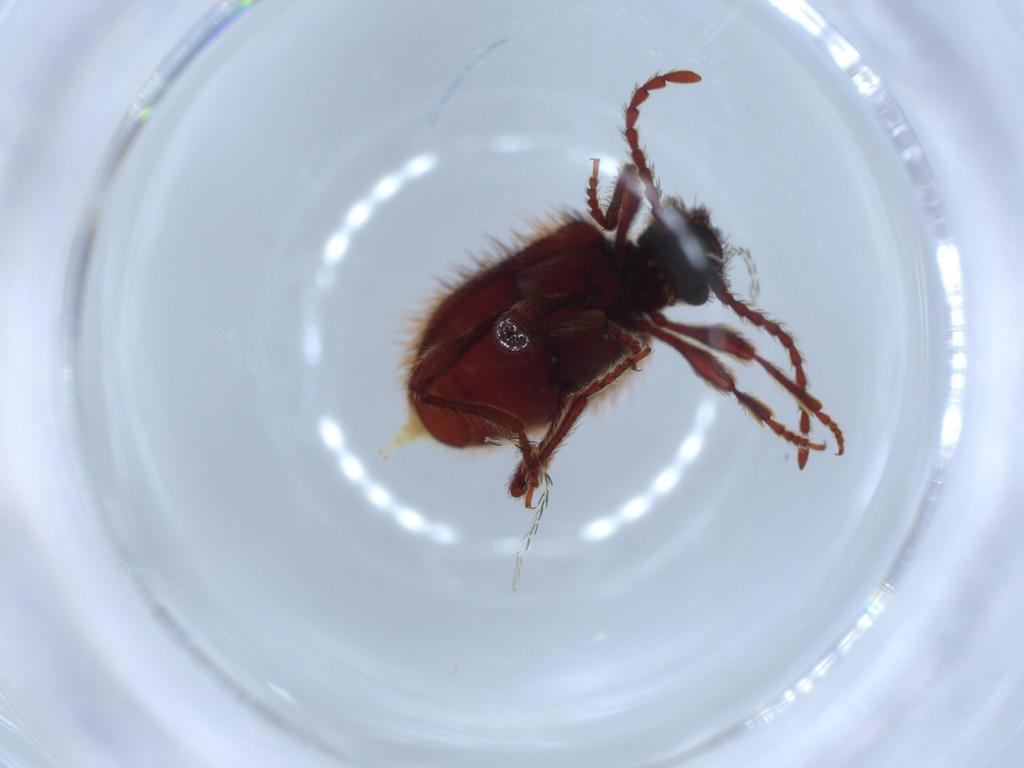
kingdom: Animalia
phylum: Arthropoda
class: Insecta
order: Coleoptera
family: Ptinidae
